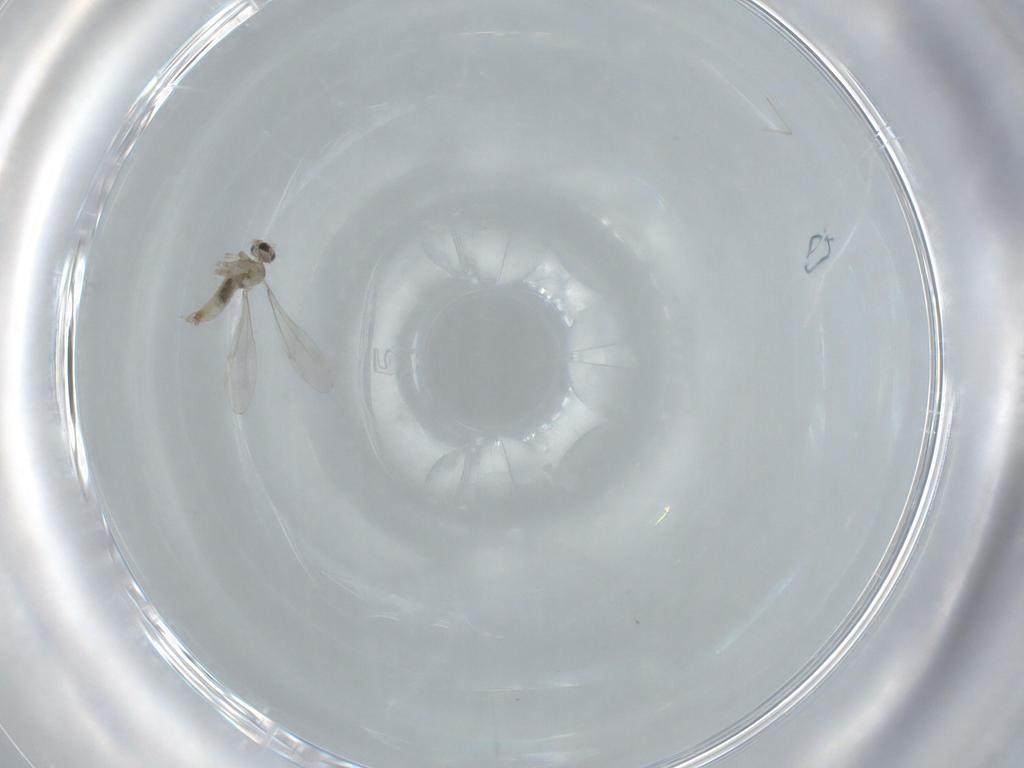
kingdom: Animalia
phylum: Arthropoda
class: Insecta
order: Diptera
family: Cecidomyiidae
